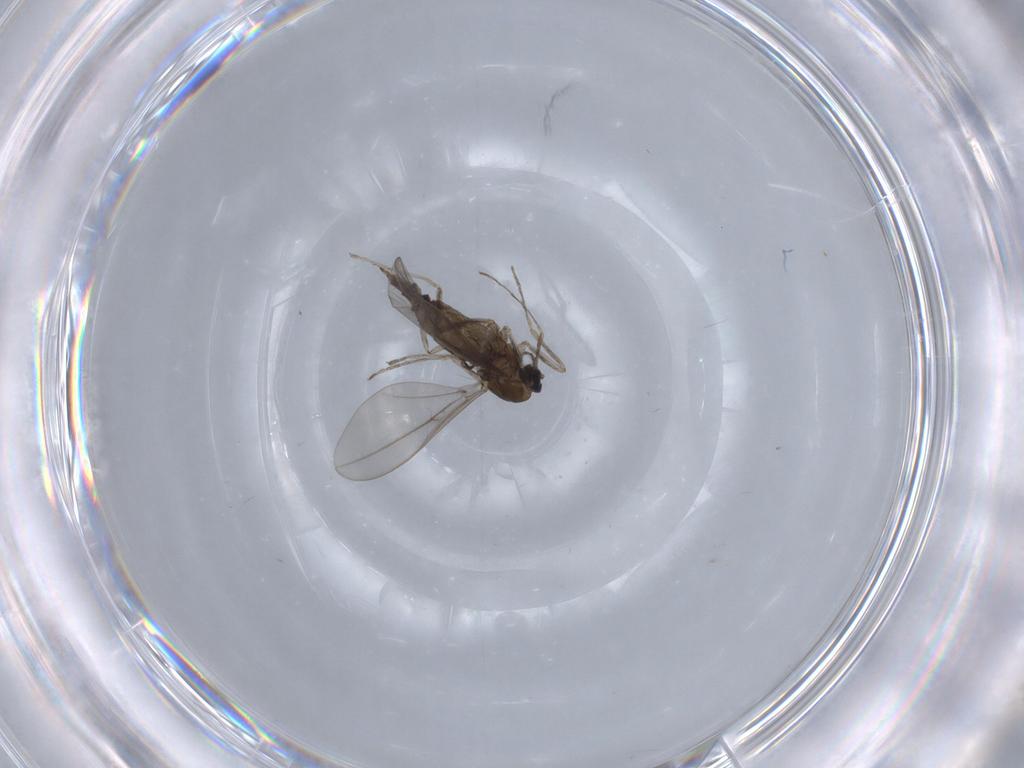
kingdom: Animalia
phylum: Arthropoda
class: Insecta
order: Diptera
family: Cecidomyiidae
